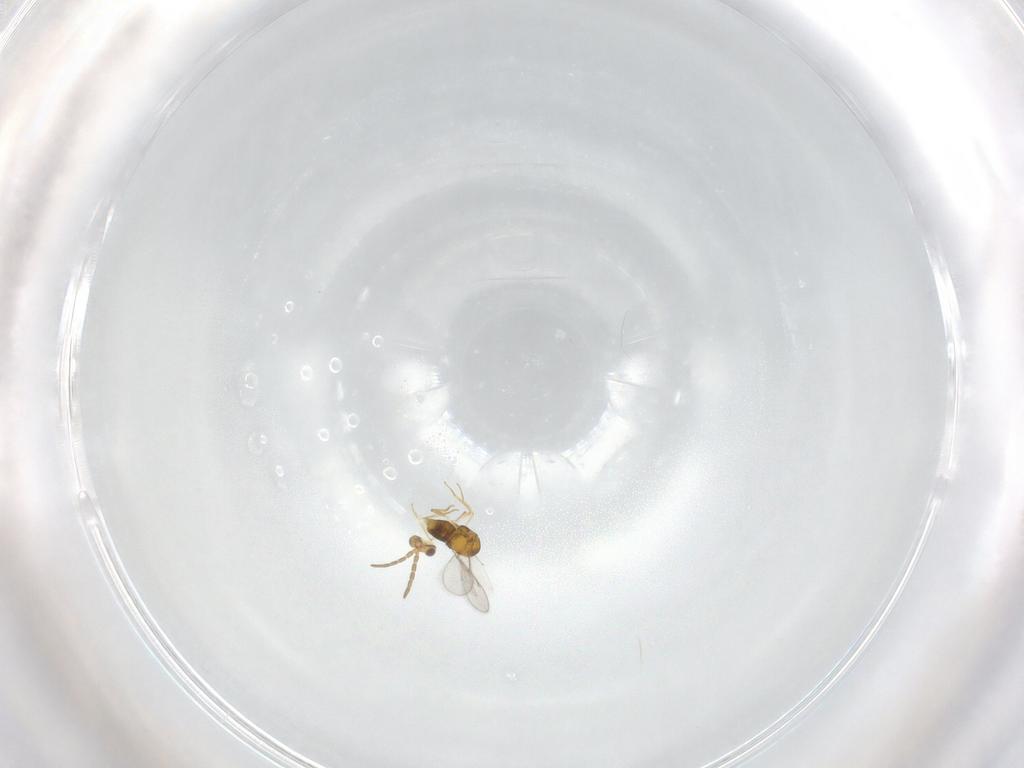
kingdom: Animalia
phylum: Arthropoda
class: Insecta
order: Hymenoptera
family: Aphelinidae
